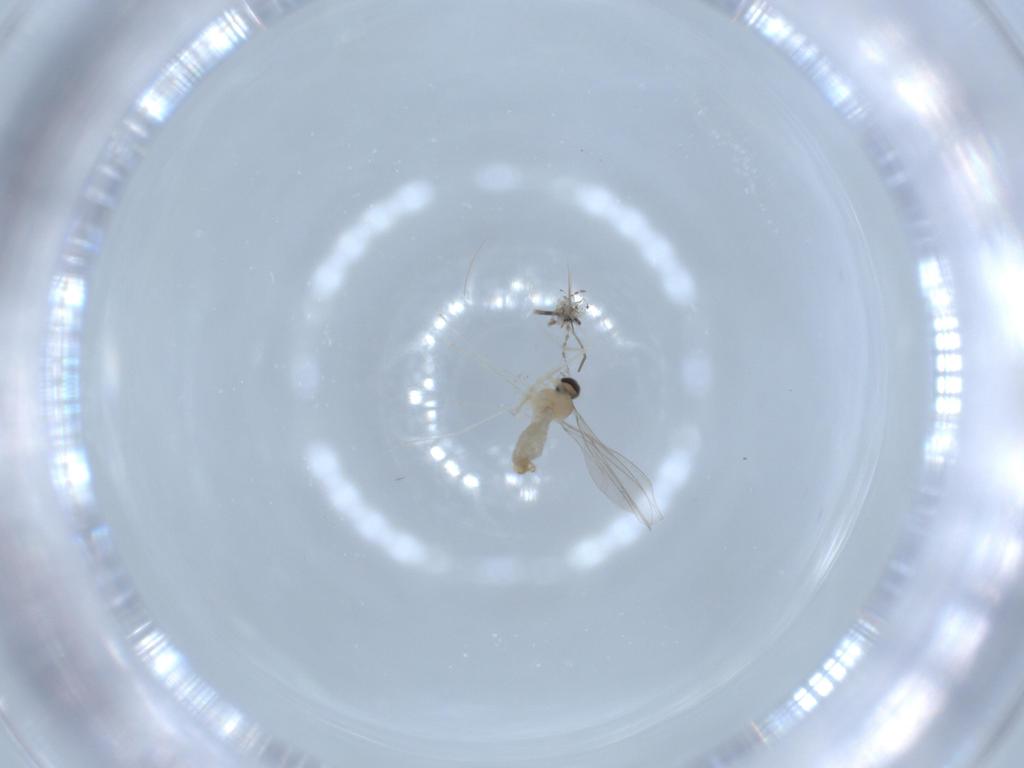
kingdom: Animalia
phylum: Arthropoda
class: Insecta
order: Diptera
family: Cecidomyiidae
